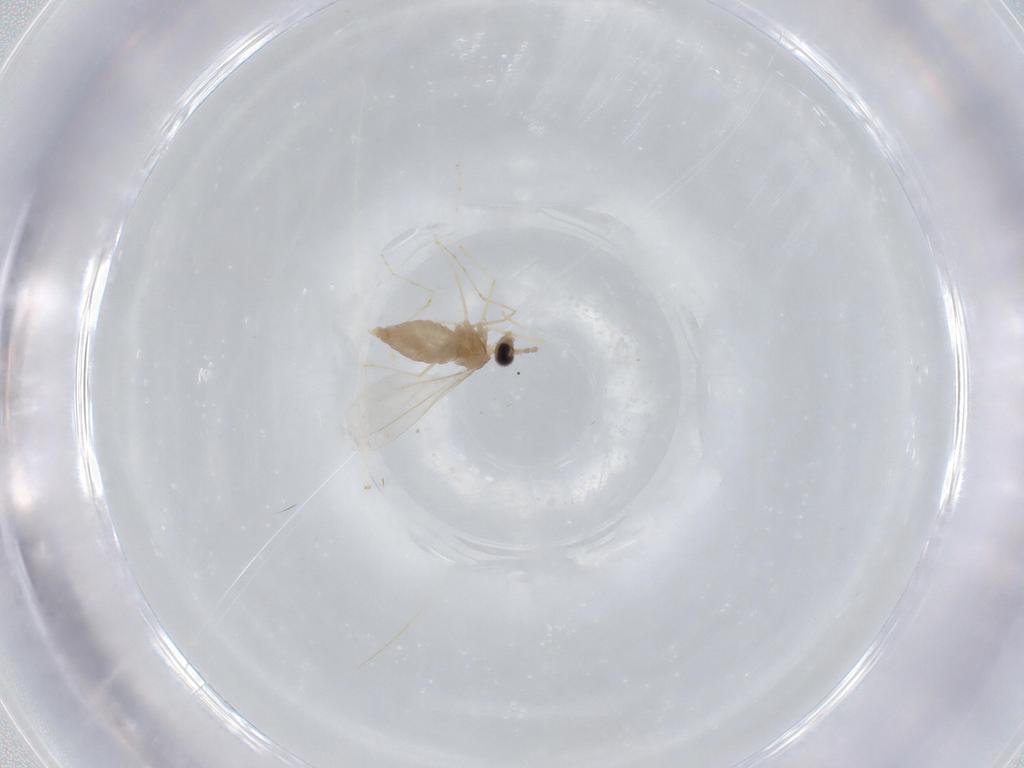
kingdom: Animalia
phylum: Arthropoda
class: Insecta
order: Diptera
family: Cecidomyiidae
